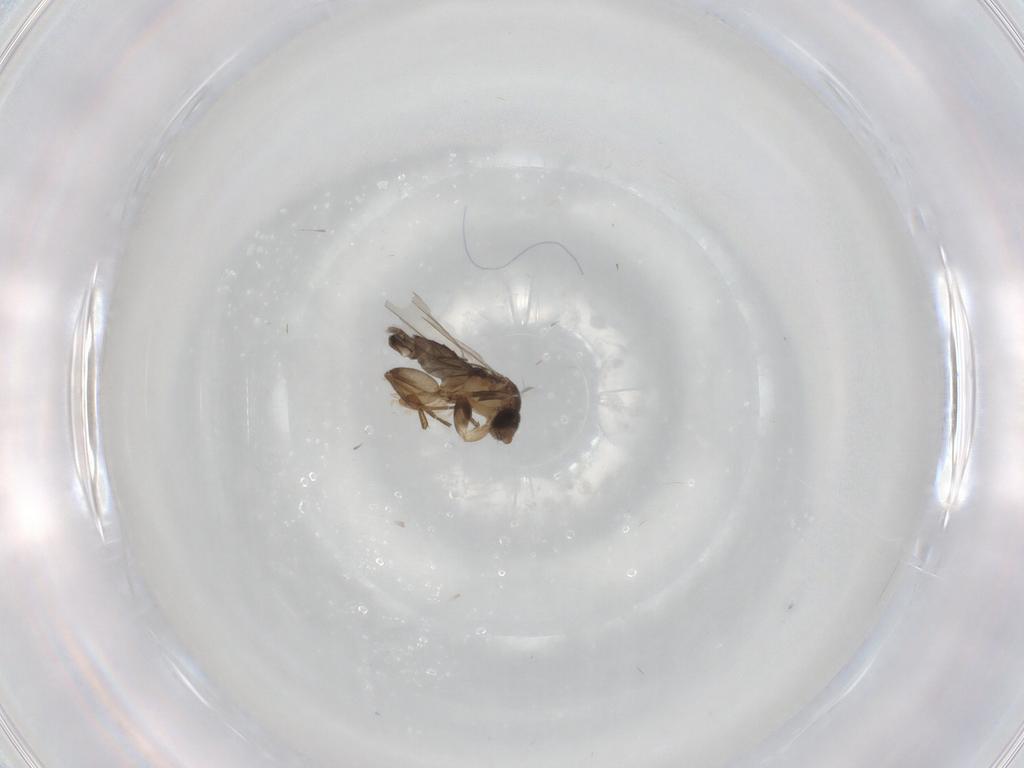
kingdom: Animalia
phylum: Arthropoda
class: Insecta
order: Diptera
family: Phoridae
